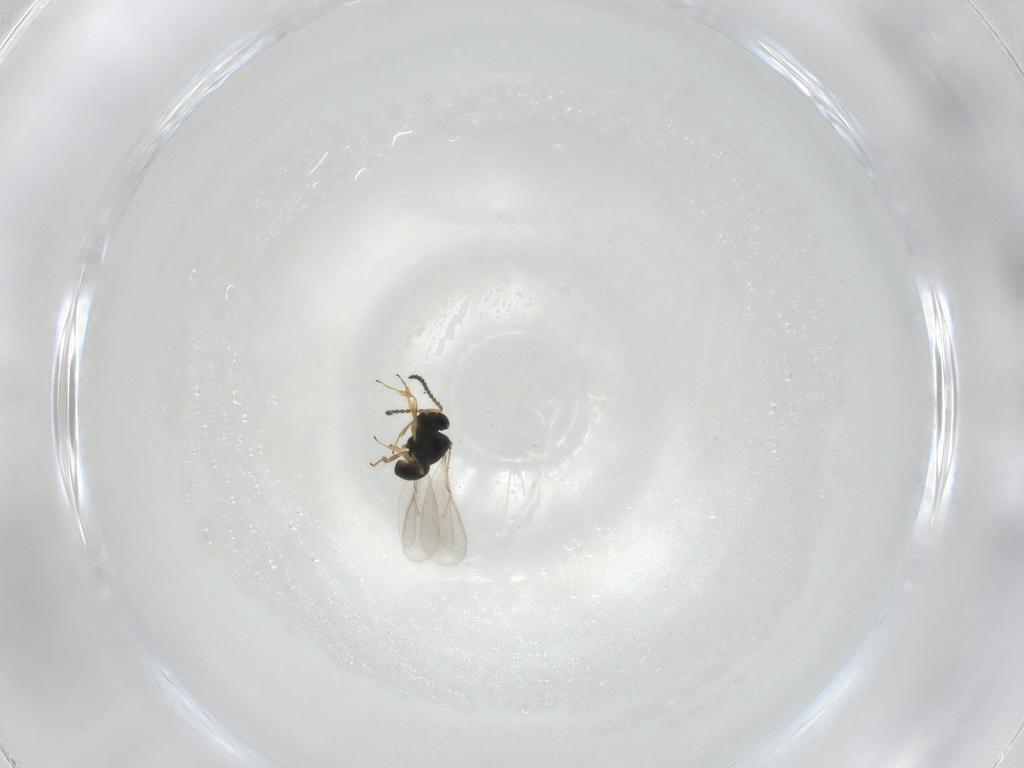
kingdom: Animalia
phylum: Arthropoda
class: Insecta
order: Hymenoptera
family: Scelionidae
